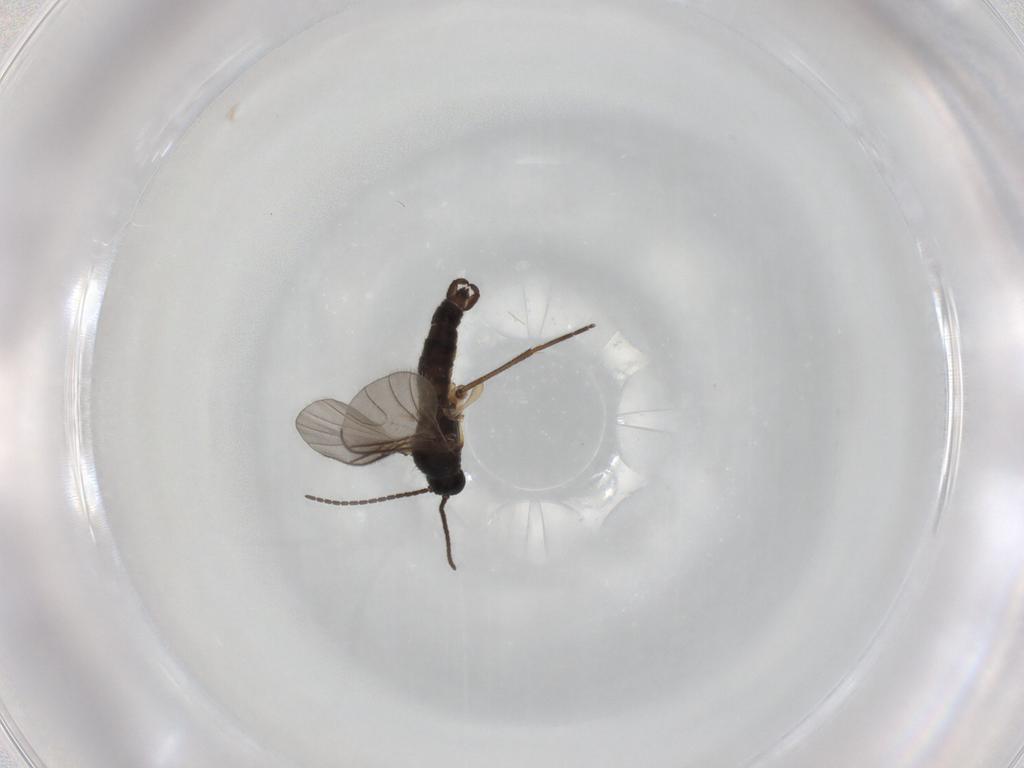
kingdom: Animalia
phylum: Arthropoda
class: Insecta
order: Diptera
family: Sciaridae
